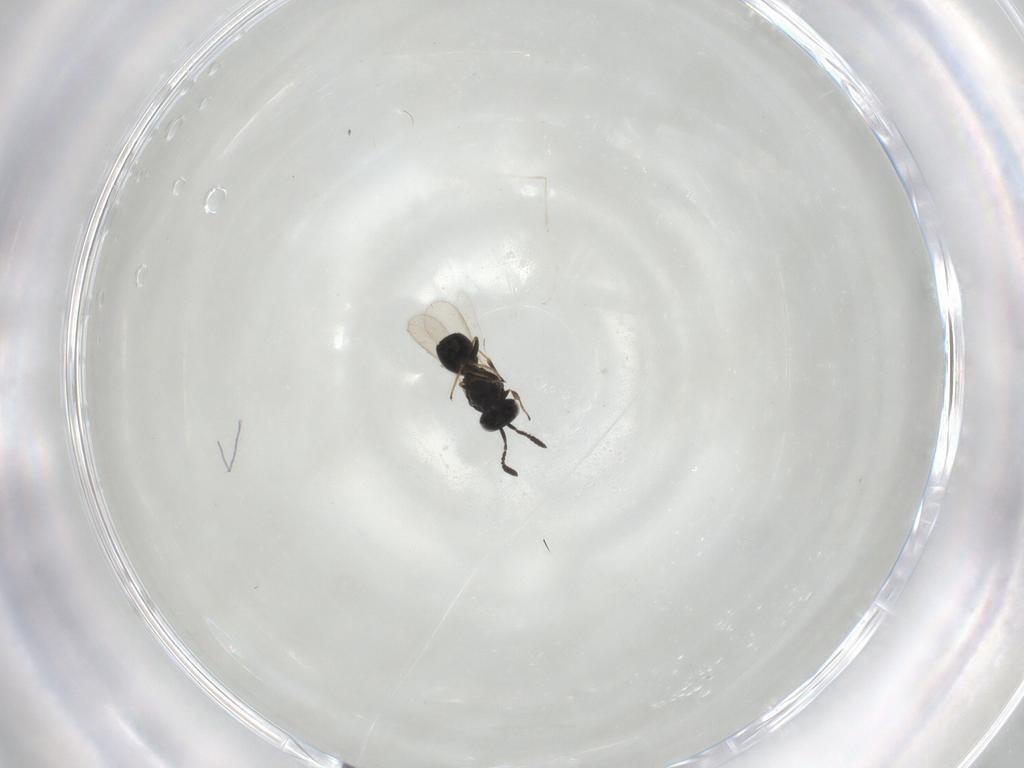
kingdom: Animalia
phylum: Arthropoda
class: Insecta
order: Hymenoptera
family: Scelionidae
